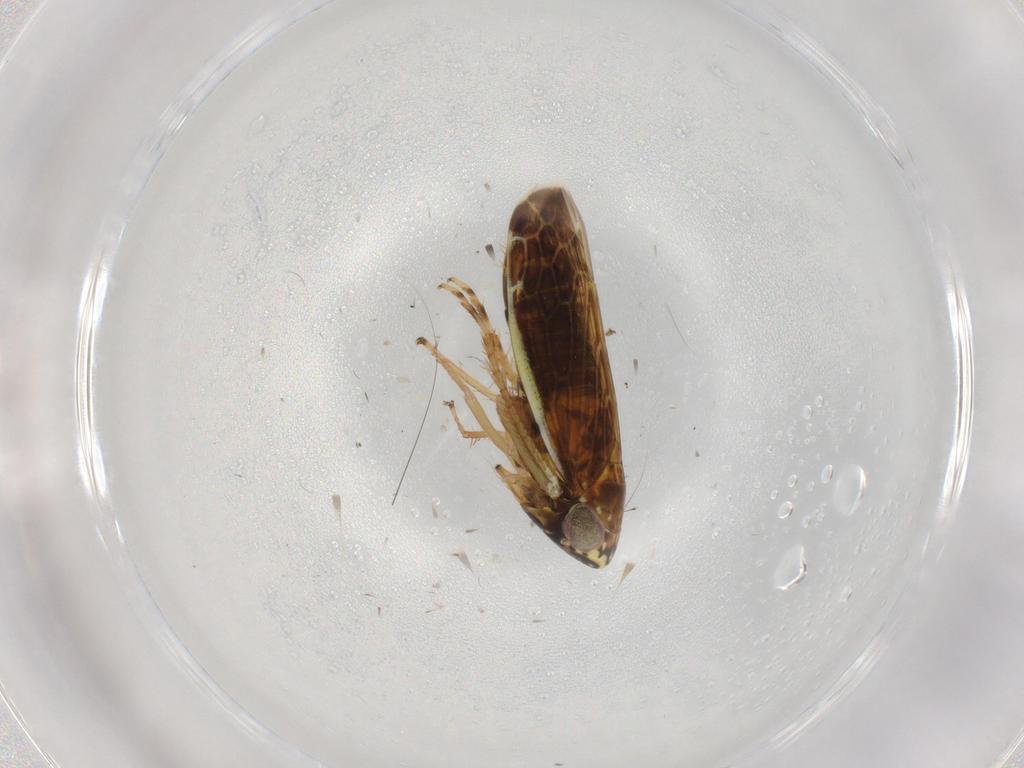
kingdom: Animalia
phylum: Arthropoda
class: Insecta
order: Hemiptera
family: Cicadellidae
